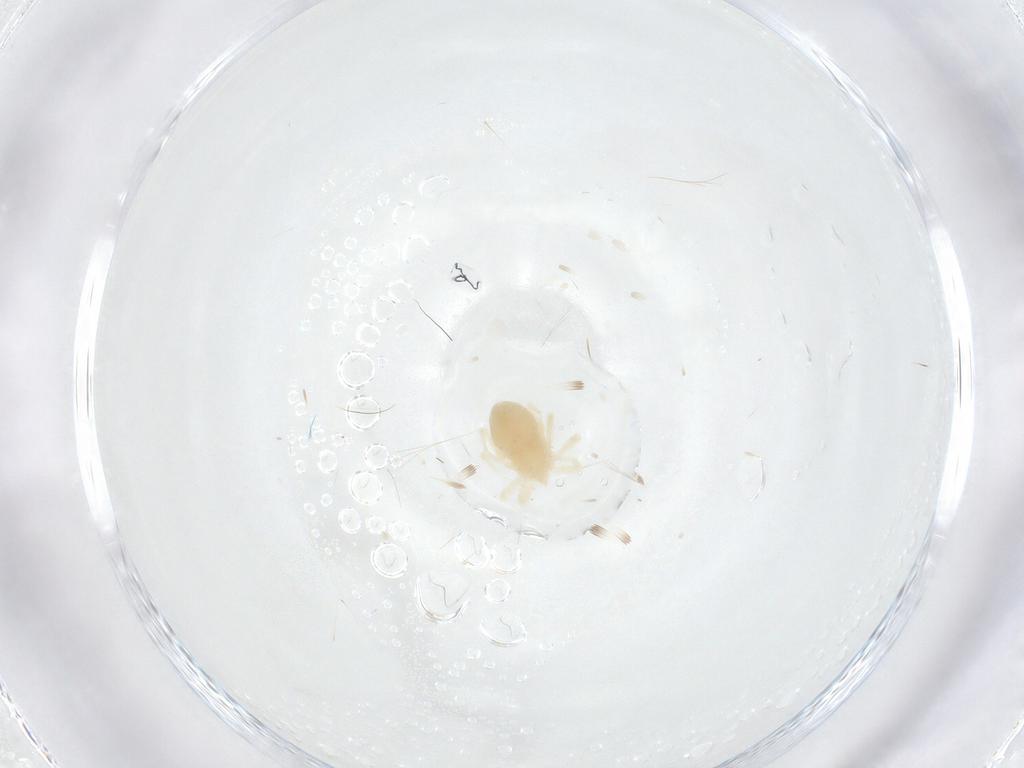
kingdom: Animalia
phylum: Arthropoda
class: Arachnida
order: Trombidiformes
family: Anystidae
